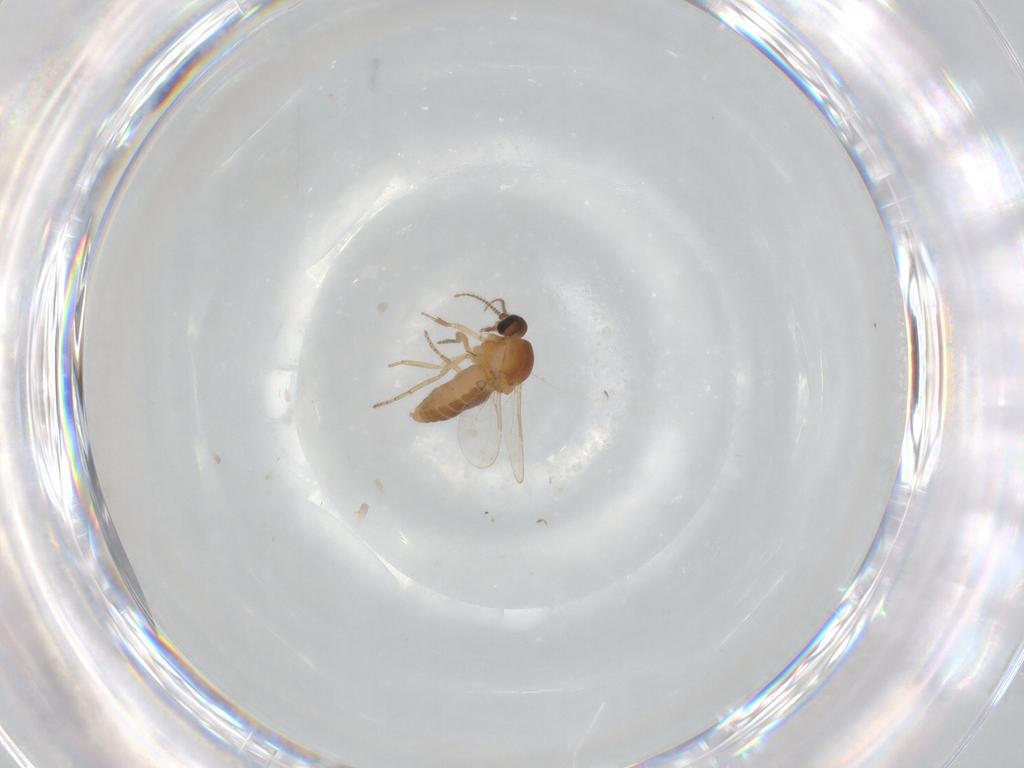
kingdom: Animalia
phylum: Arthropoda
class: Insecta
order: Diptera
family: Ceratopogonidae
